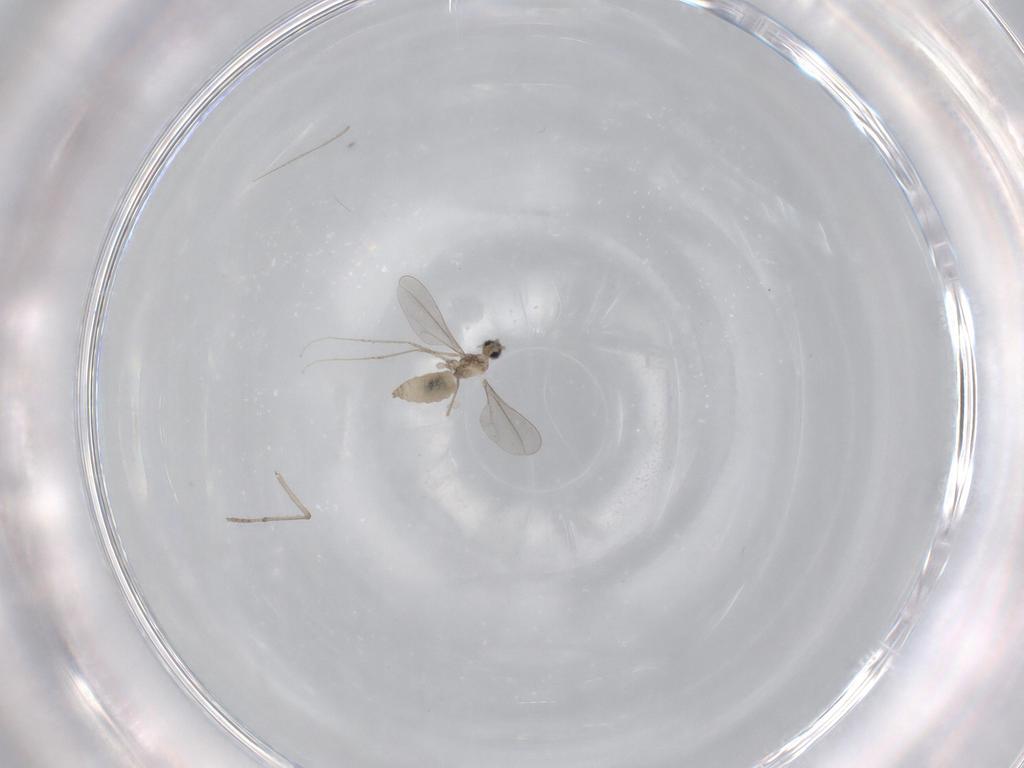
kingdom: Animalia
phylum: Arthropoda
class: Insecta
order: Diptera
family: Psychodidae
